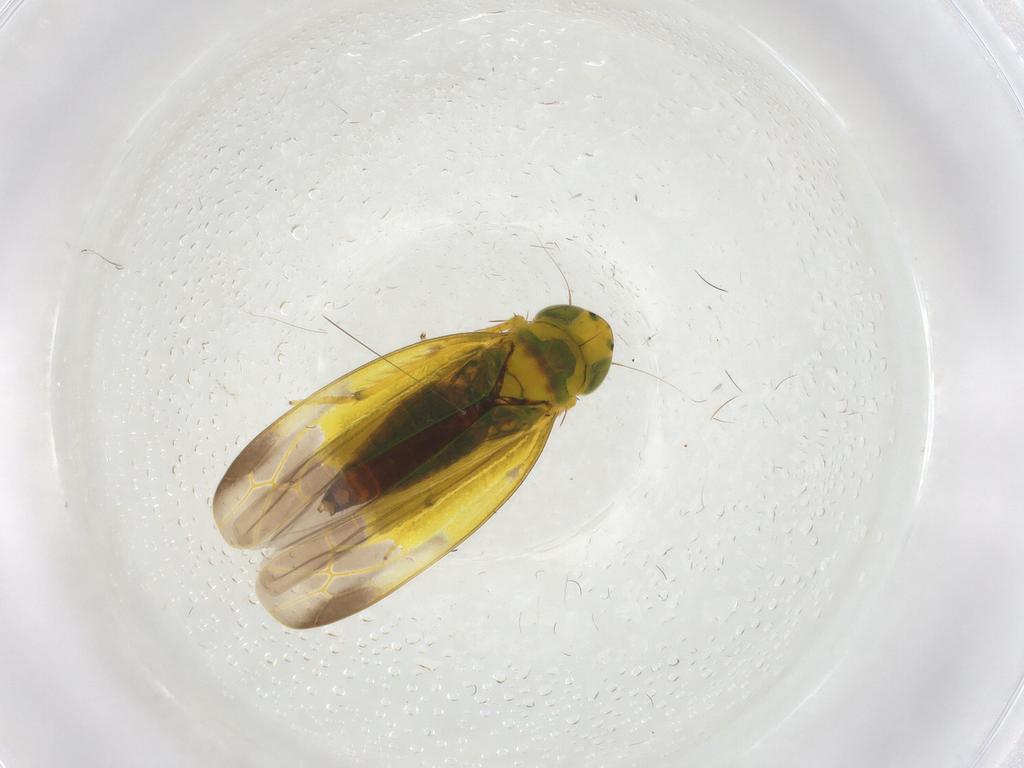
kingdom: Animalia
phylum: Arthropoda
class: Insecta
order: Hemiptera
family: Cicadellidae
